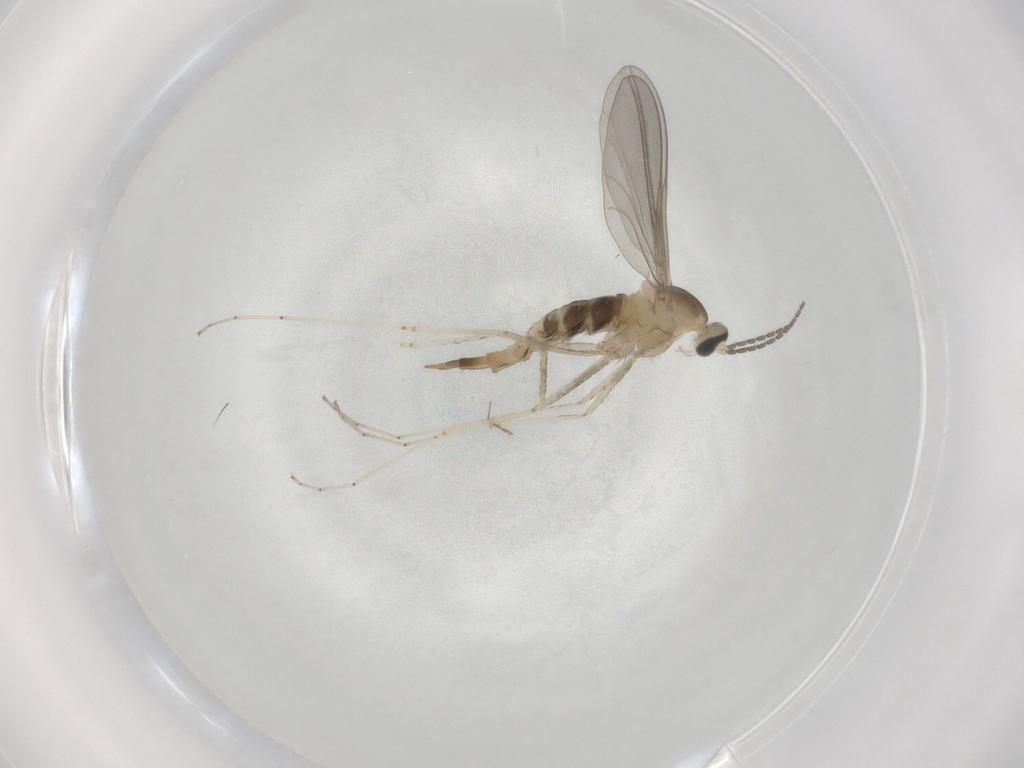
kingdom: Animalia
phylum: Arthropoda
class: Insecta
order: Diptera
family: Cecidomyiidae
